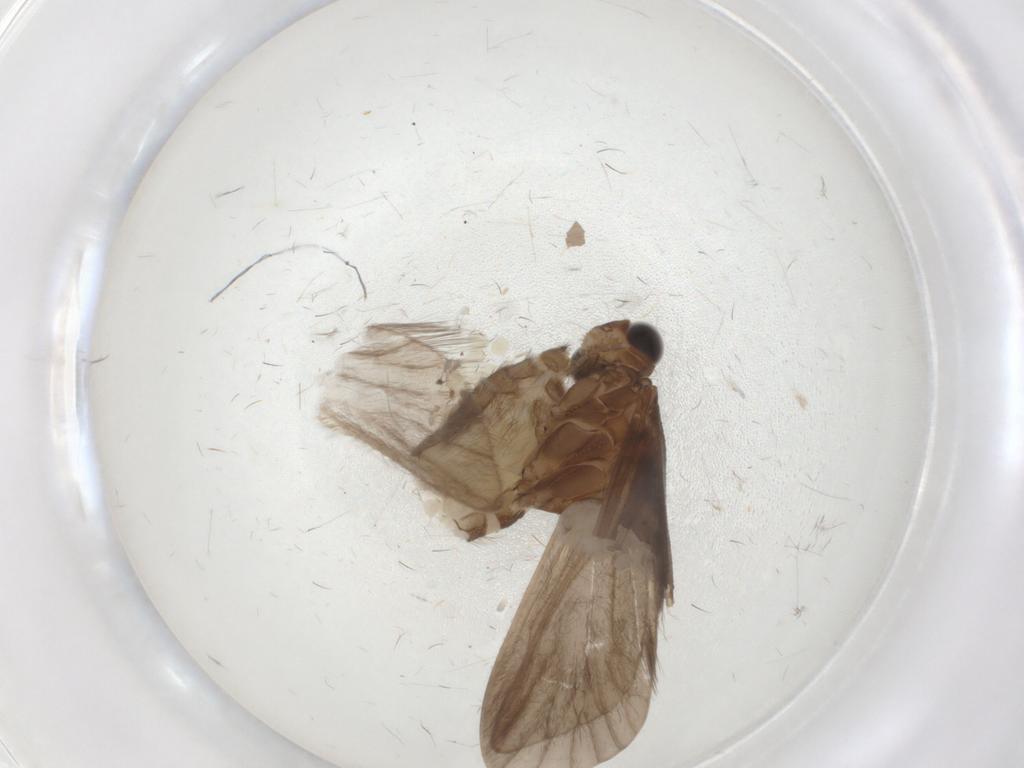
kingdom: Animalia
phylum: Arthropoda
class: Insecta
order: Trichoptera
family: Helicopsychidae
